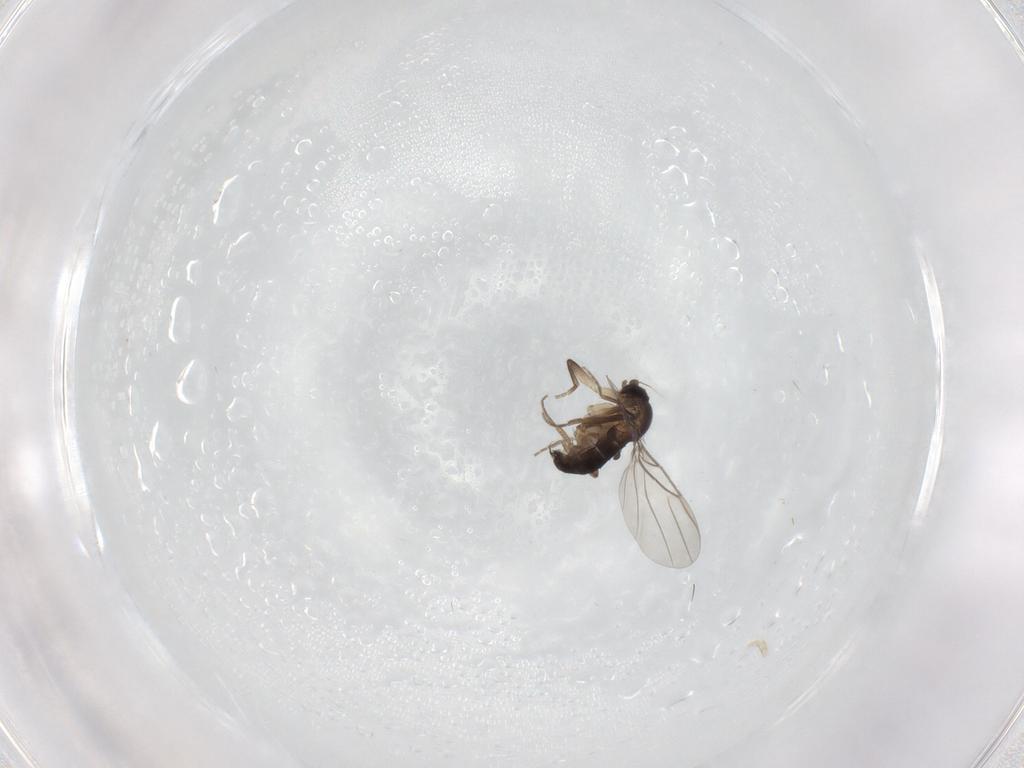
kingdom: Animalia
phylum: Arthropoda
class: Insecta
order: Diptera
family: Phoridae
